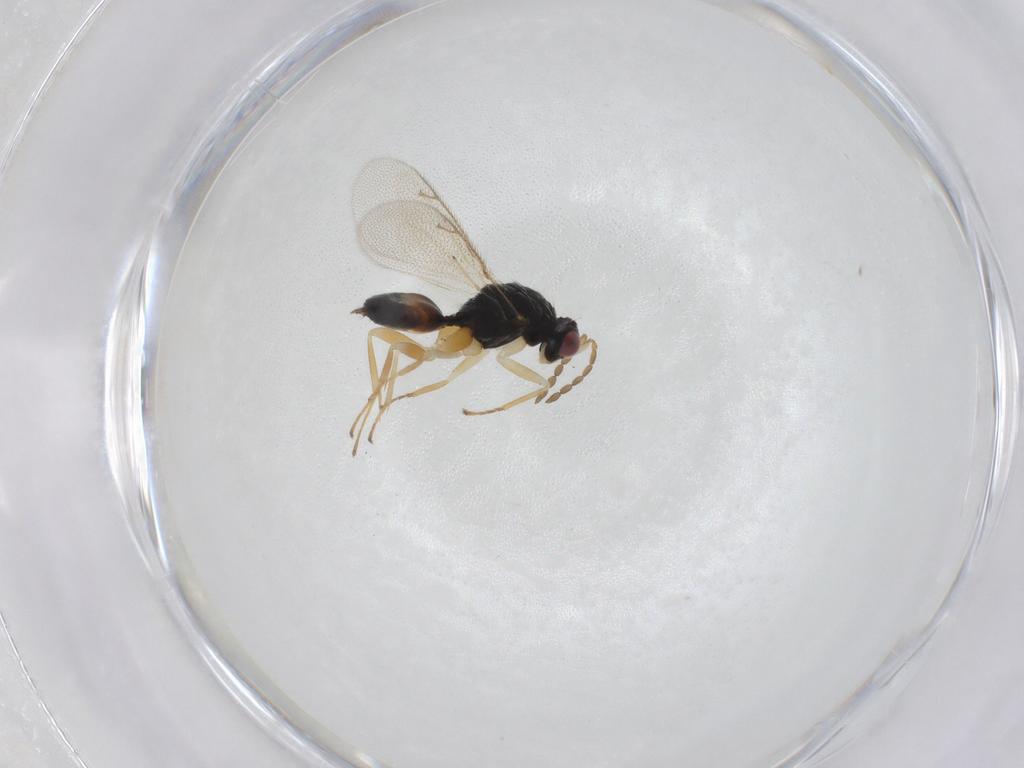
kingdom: Animalia
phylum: Arthropoda
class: Insecta
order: Hymenoptera
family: Eulophidae
